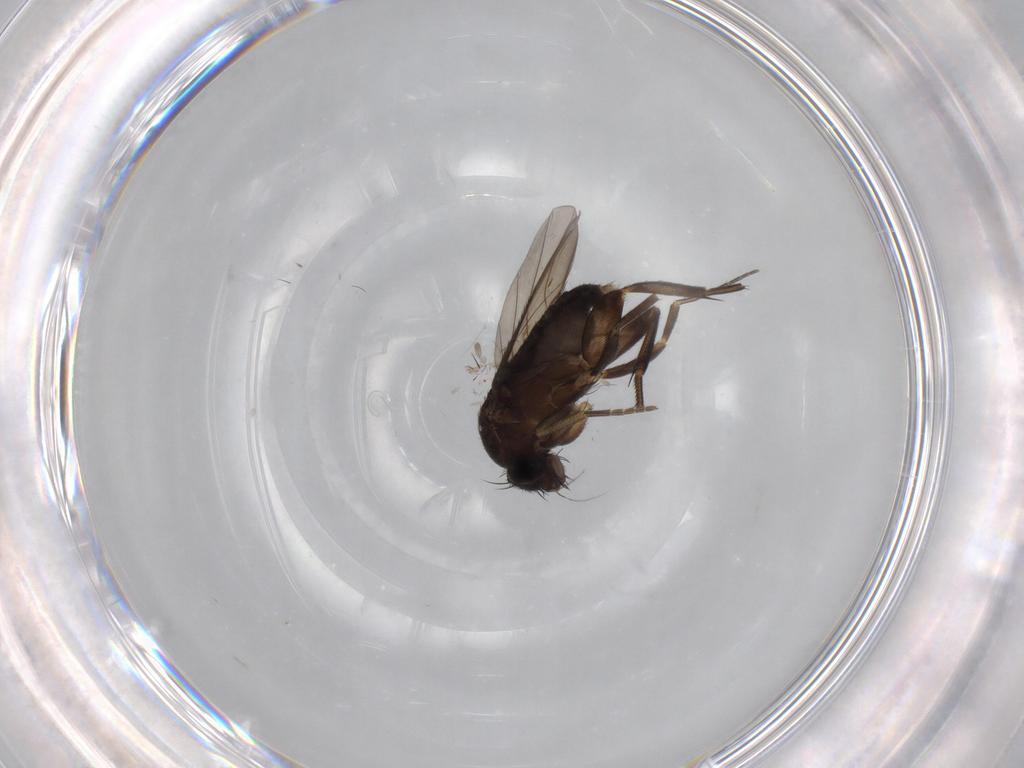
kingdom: Animalia
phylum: Arthropoda
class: Insecta
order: Diptera
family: Phoridae
